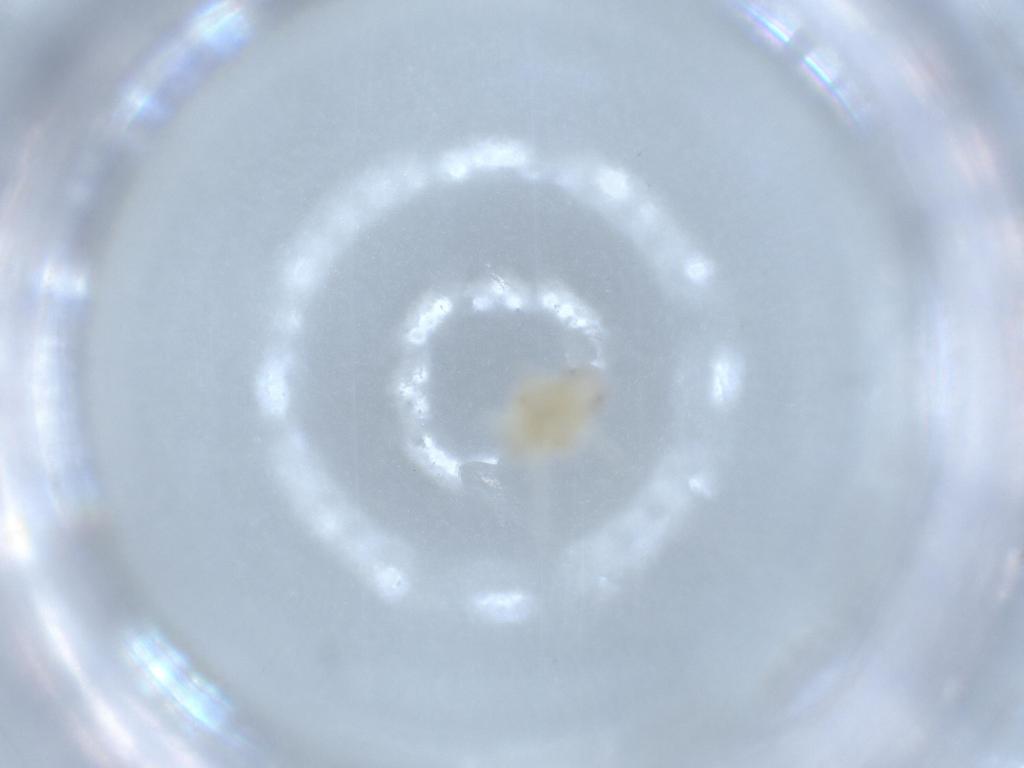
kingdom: Animalia
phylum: Arthropoda
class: Insecta
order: Hemiptera
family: Nogodinidae
